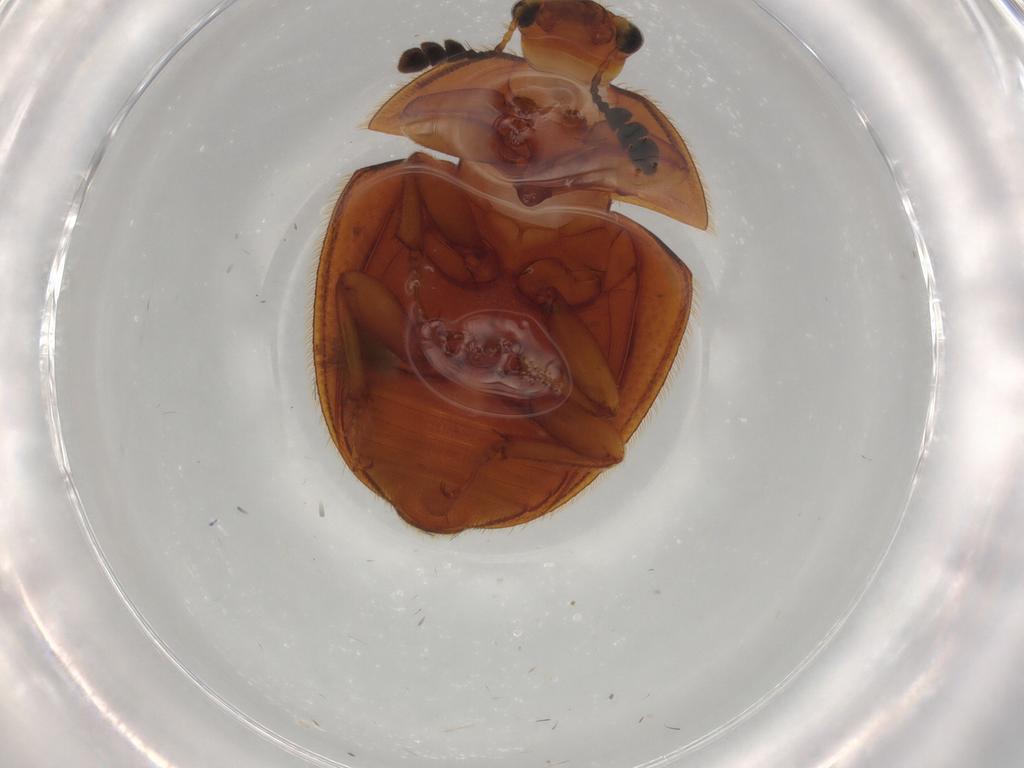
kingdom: Animalia
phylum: Arthropoda
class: Insecta
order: Coleoptera
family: Nitidulidae
